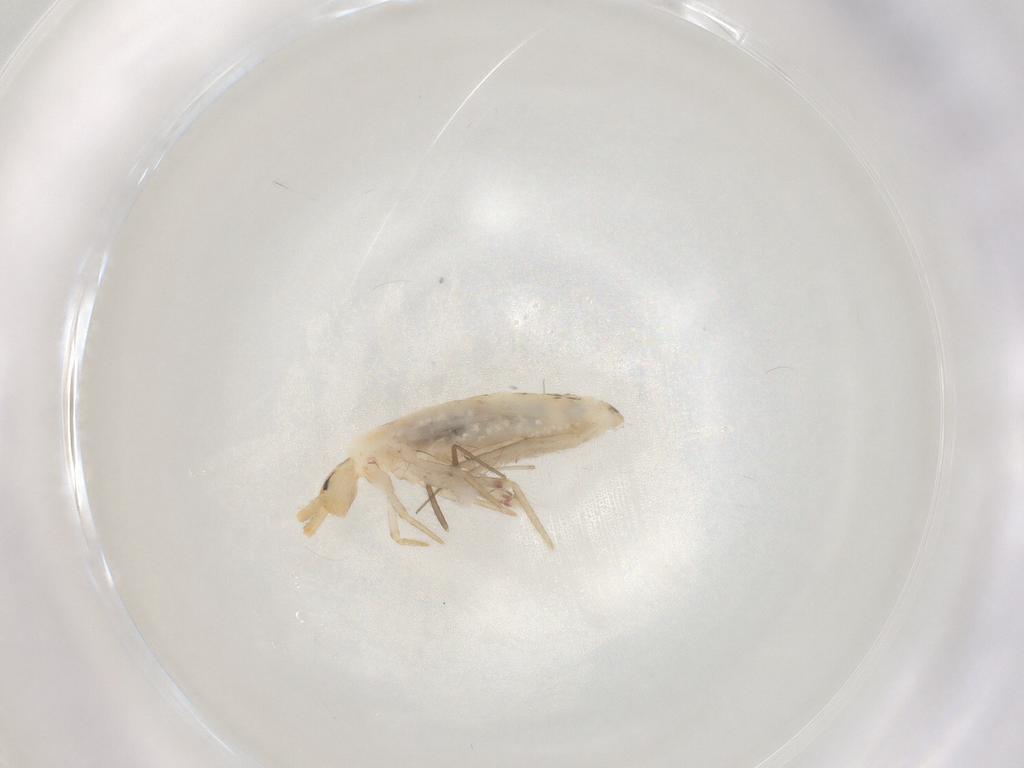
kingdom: Animalia
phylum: Arthropoda
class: Collembola
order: Poduromorpha
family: Hypogastruridae
